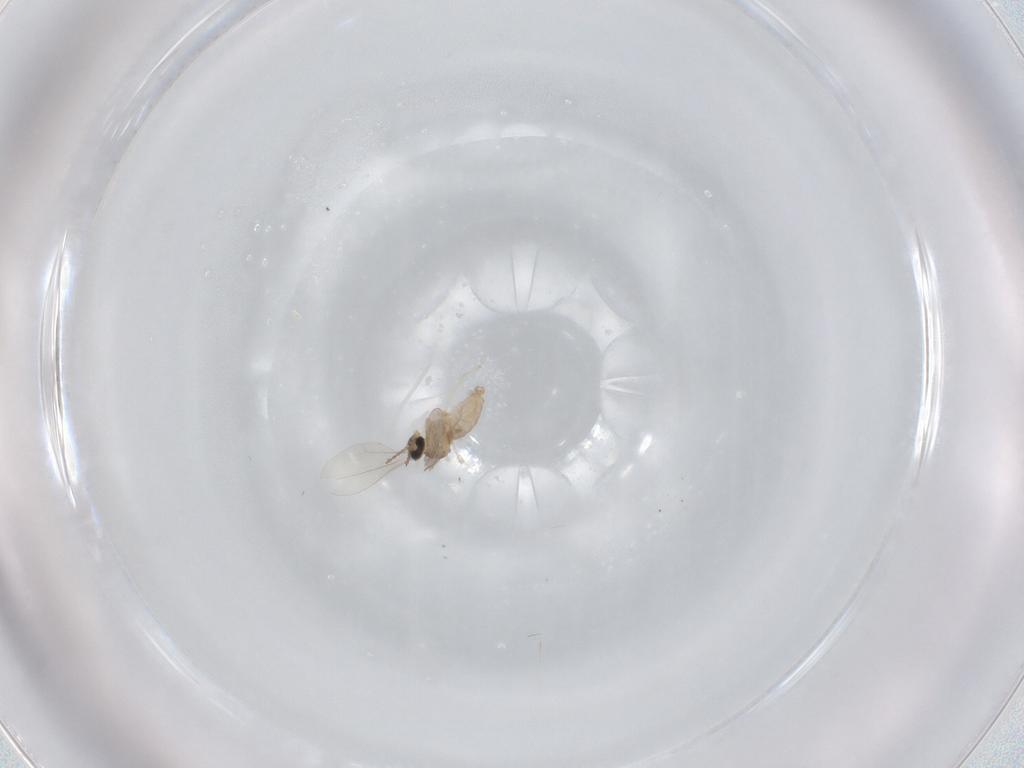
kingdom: Animalia
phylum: Arthropoda
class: Insecta
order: Diptera
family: Cecidomyiidae
